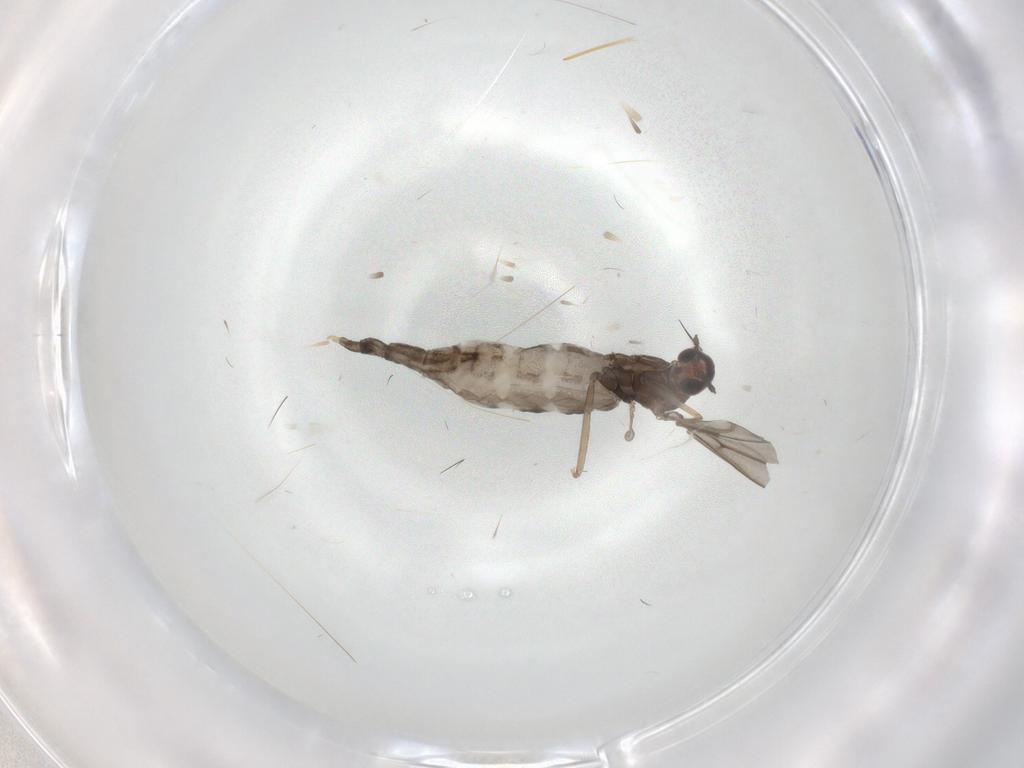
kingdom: Animalia
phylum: Arthropoda
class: Insecta
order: Diptera
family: Cecidomyiidae
